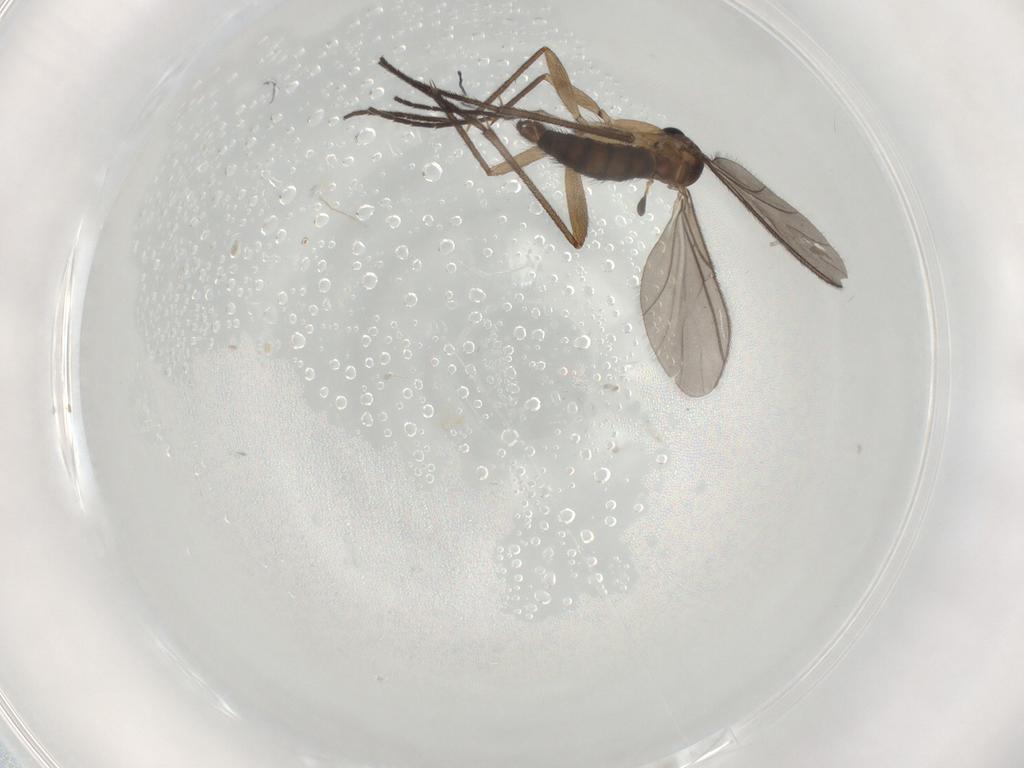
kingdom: Animalia
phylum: Arthropoda
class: Insecta
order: Diptera
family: Sciaridae
